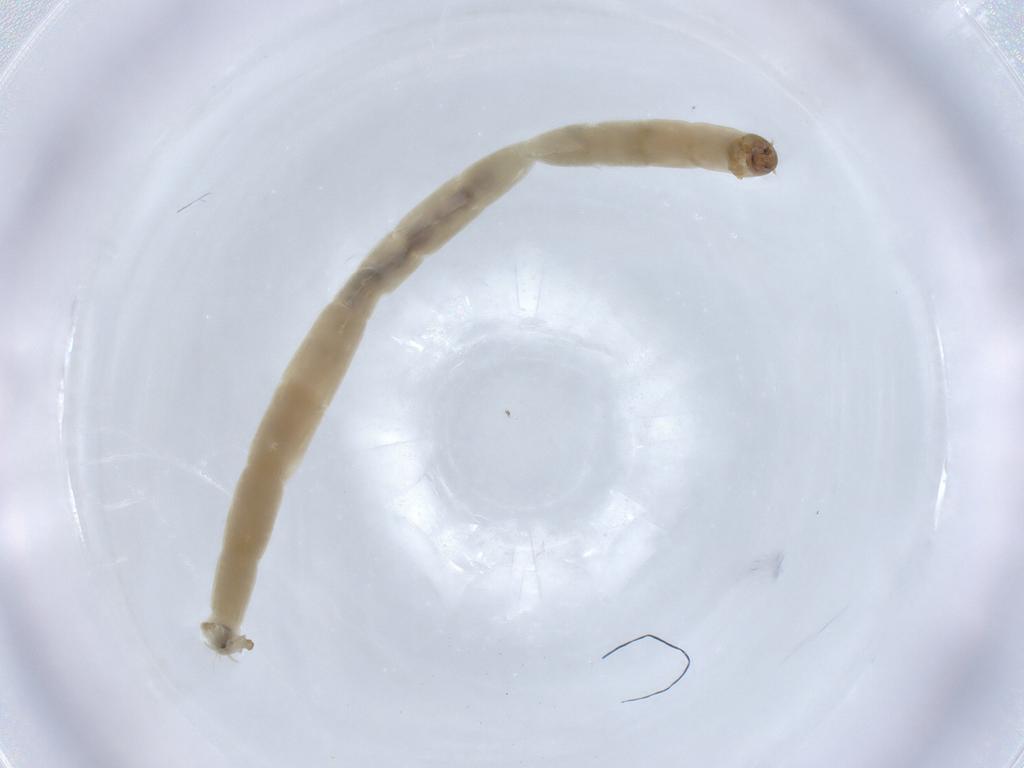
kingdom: Animalia
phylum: Arthropoda
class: Insecta
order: Diptera
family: Chironomidae
